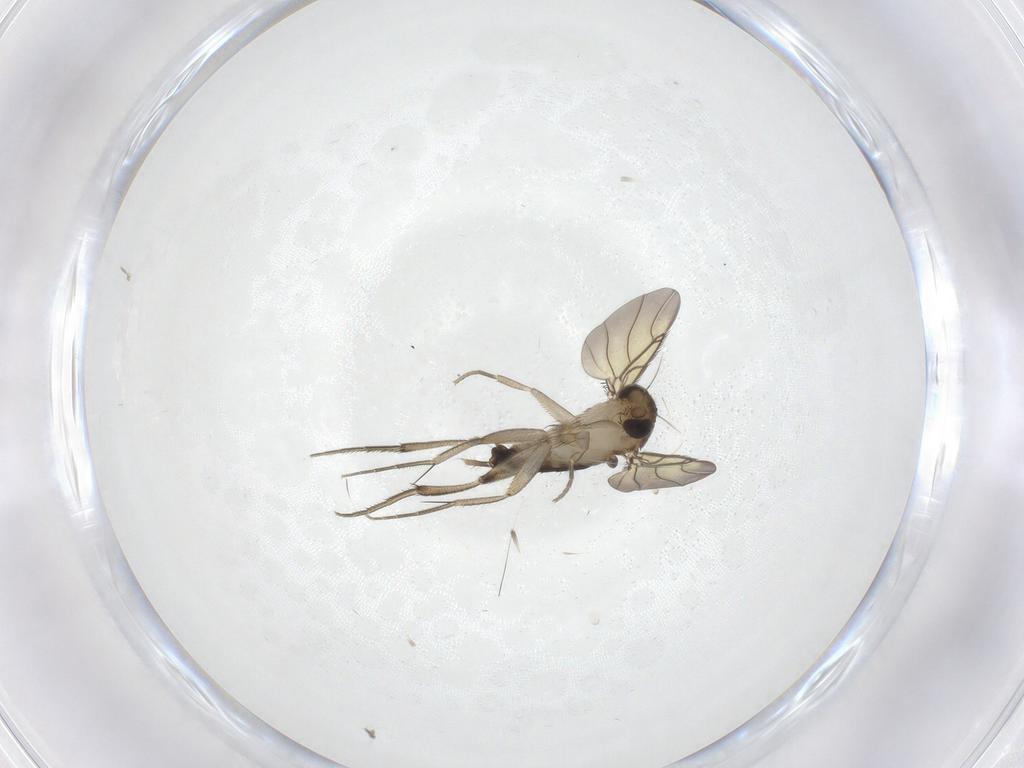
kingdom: Animalia
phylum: Arthropoda
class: Insecta
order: Diptera
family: Phoridae
